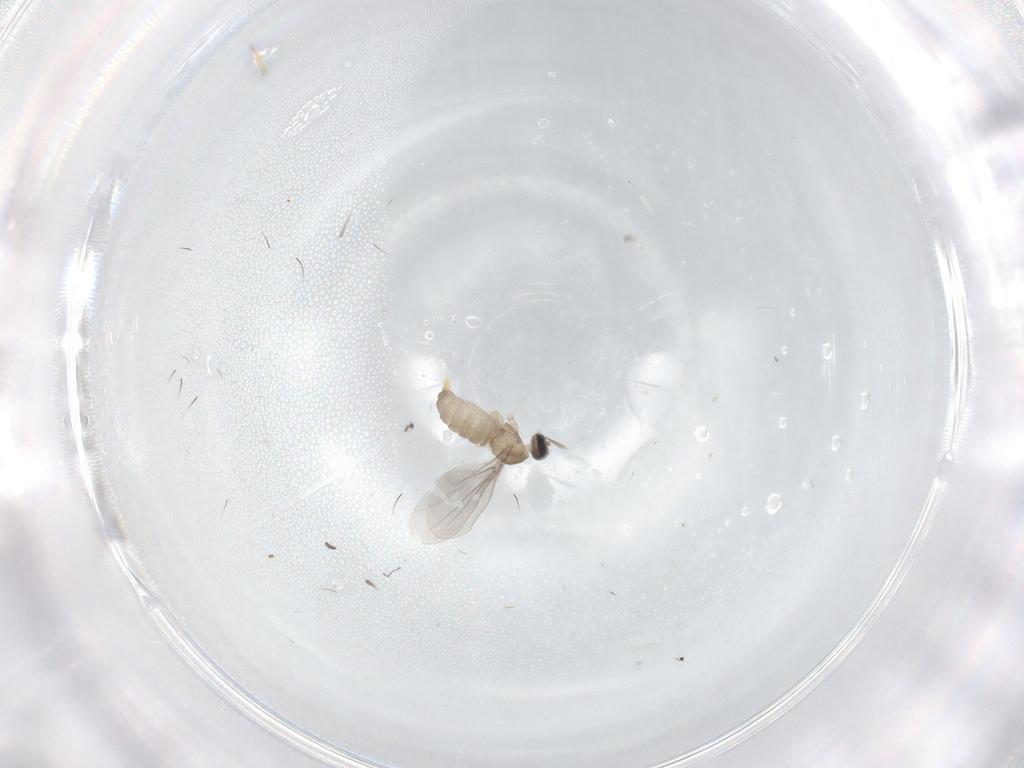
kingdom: Animalia
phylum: Arthropoda
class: Insecta
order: Diptera
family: Cecidomyiidae
